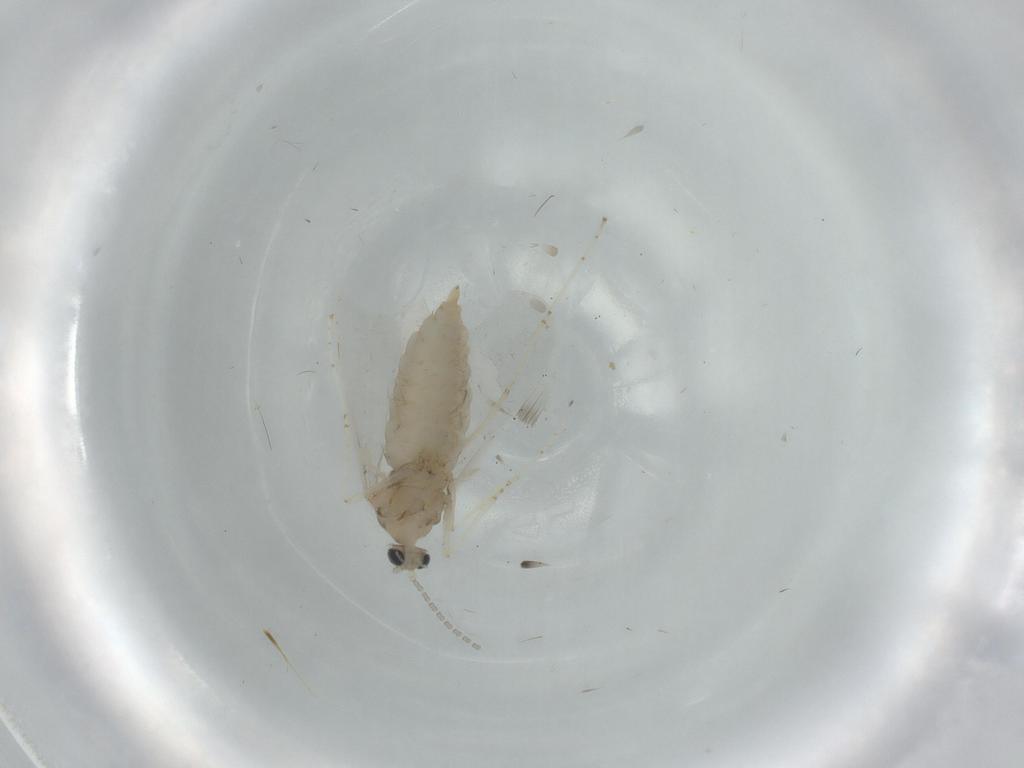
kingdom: Animalia
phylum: Arthropoda
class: Insecta
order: Diptera
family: Cecidomyiidae
